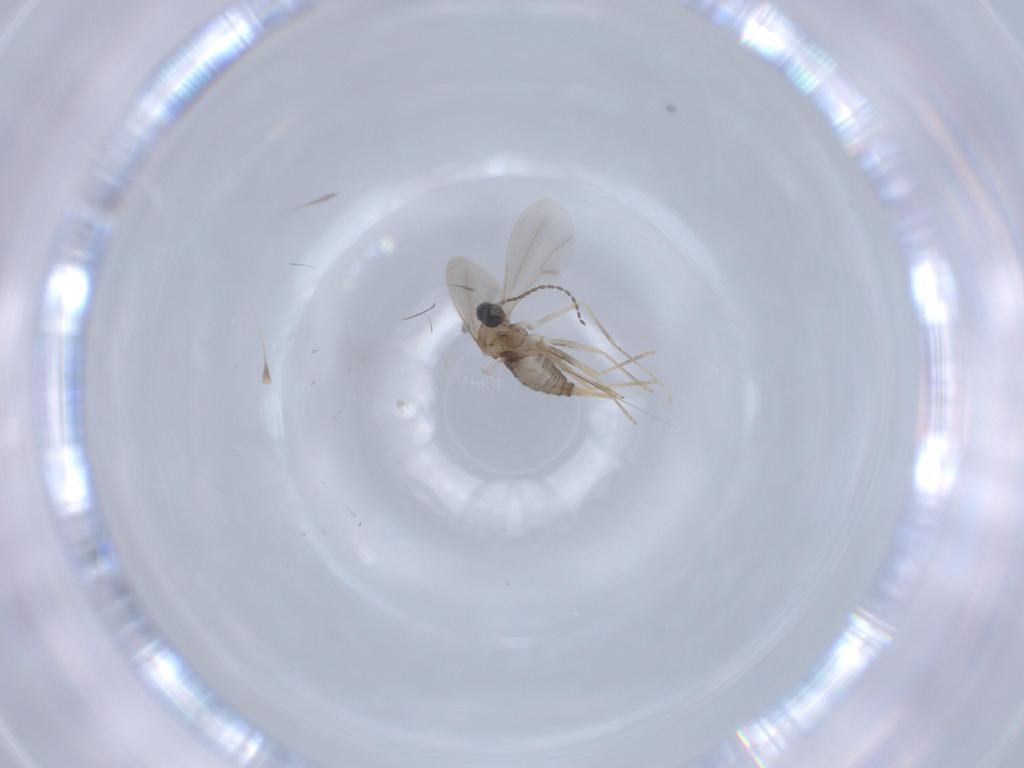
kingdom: Animalia
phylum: Arthropoda
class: Insecta
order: Diptera
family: Cecidomyiidae
